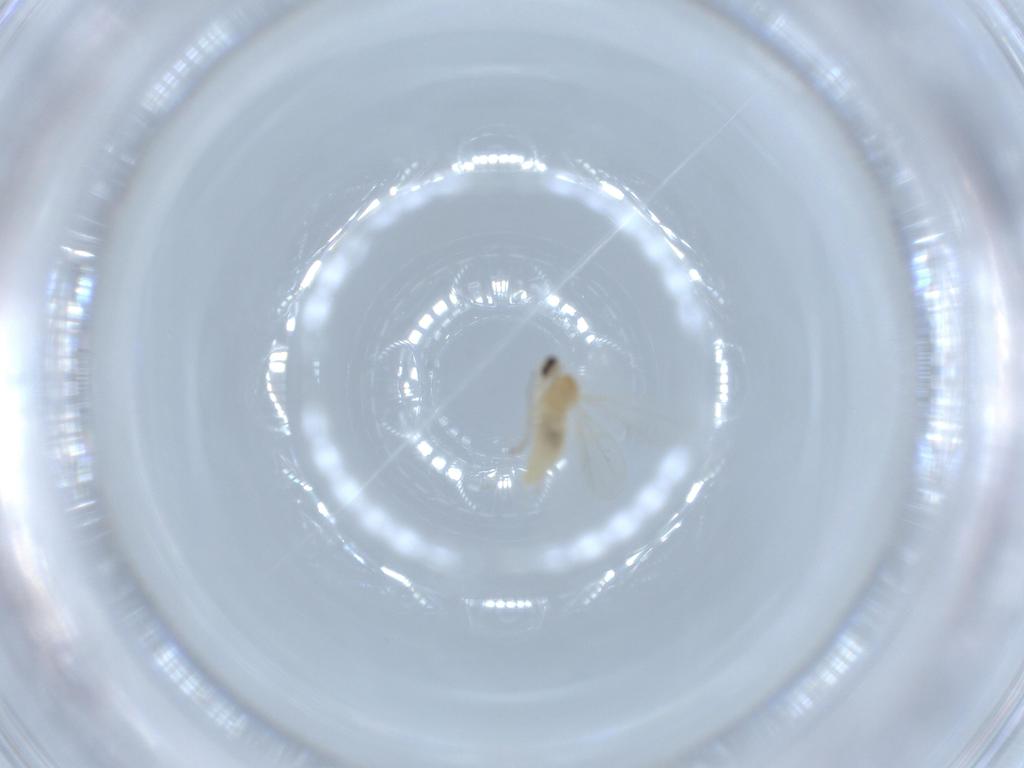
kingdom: Animalia
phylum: Arthropoda
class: Insecta
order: Diptera
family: Cecidomyiidae
